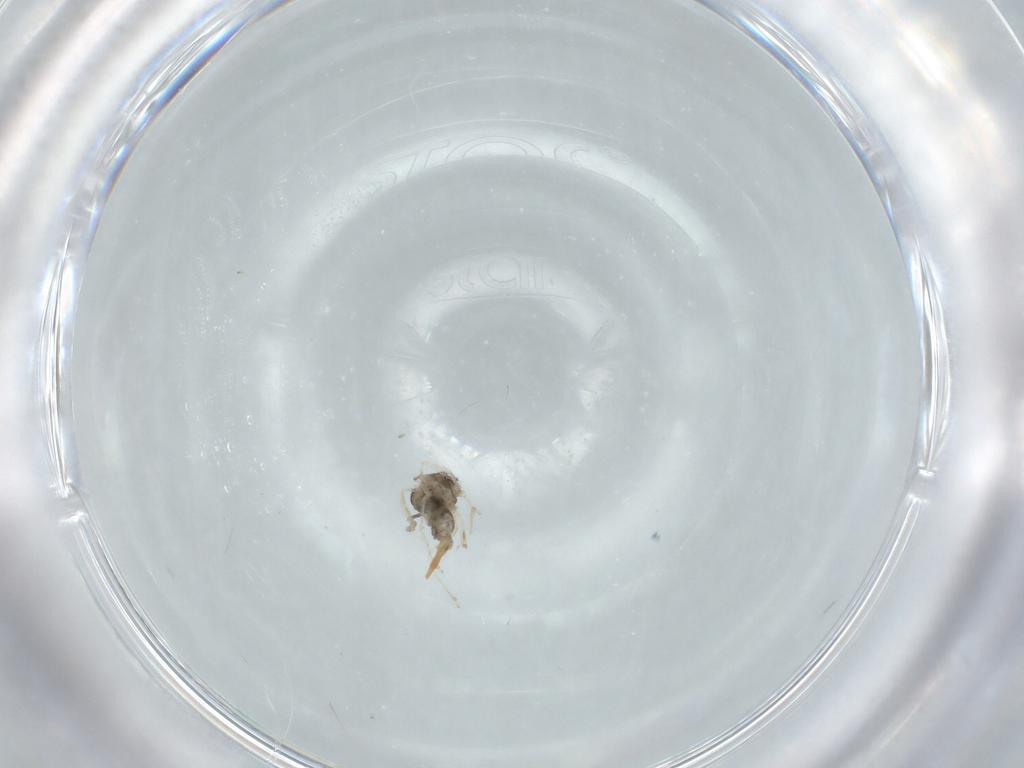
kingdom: Animalia
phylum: Arthropoda
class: Insecta
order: Diptera
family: Cecidomyiidae
